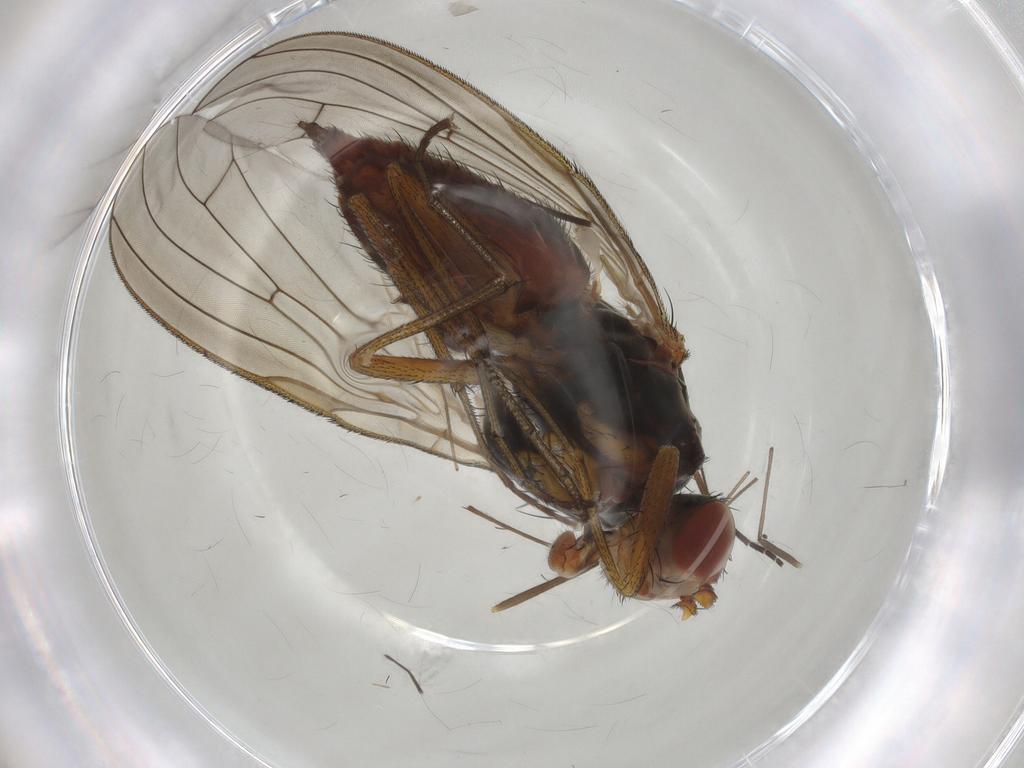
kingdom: Animalia
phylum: Arthropoda
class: Insecta
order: Diptera
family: Heleomyzidae
